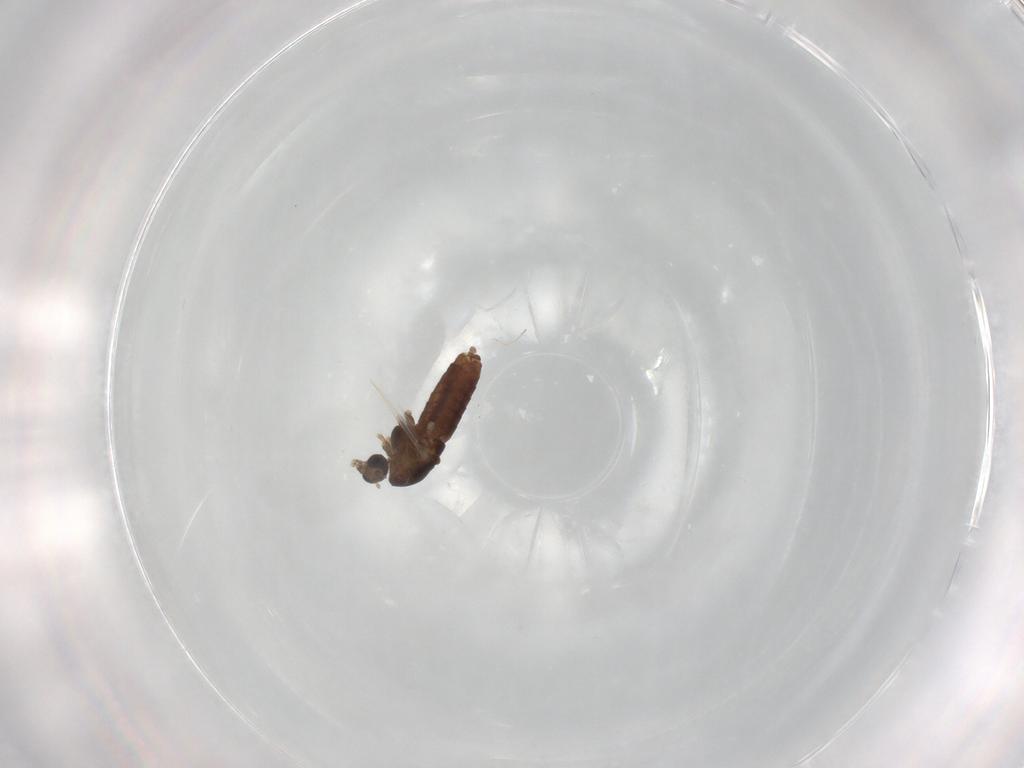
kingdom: Animalia
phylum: Arthropoda
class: Insecta
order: Diptera
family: Chironomidae
